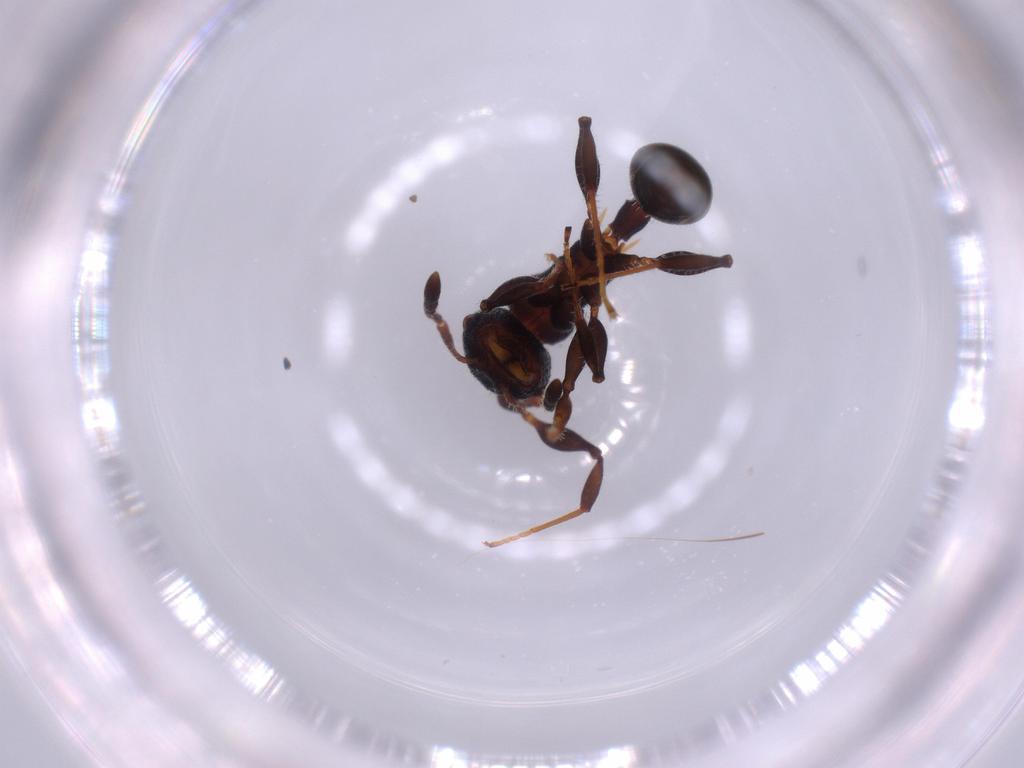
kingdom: Animalia
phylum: Arthropoda
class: Insecta
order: Hymenoptera
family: Formicidae
